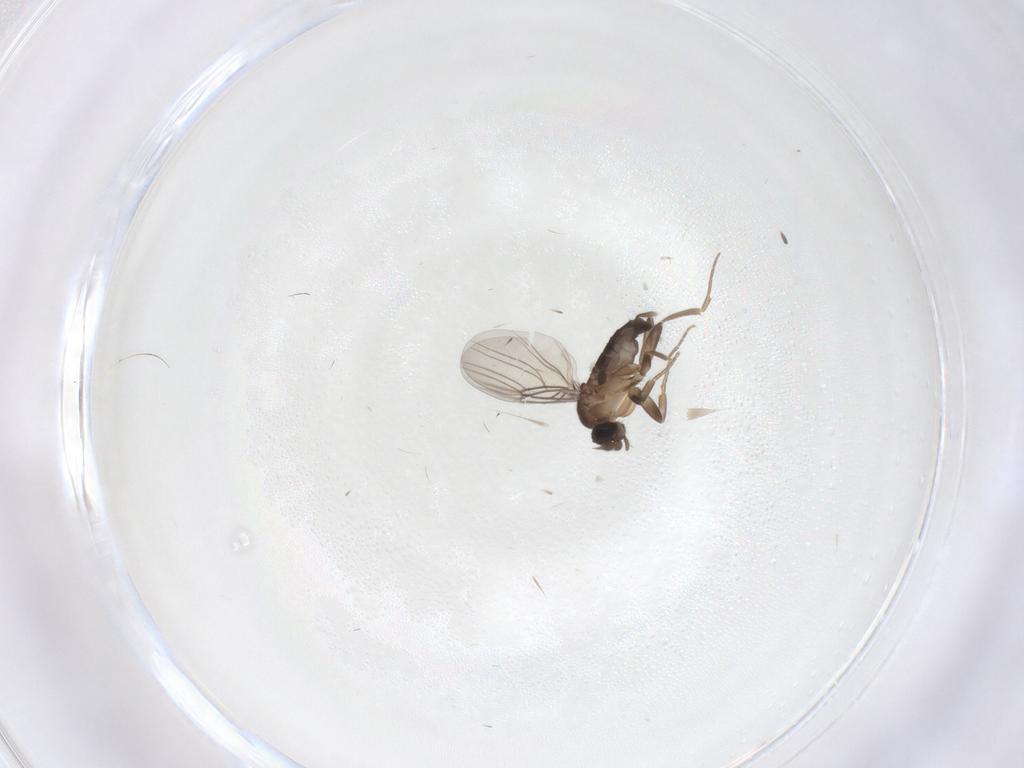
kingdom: Animalia
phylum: Arthropoda
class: Insecta
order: Diptera
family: Phoridae
